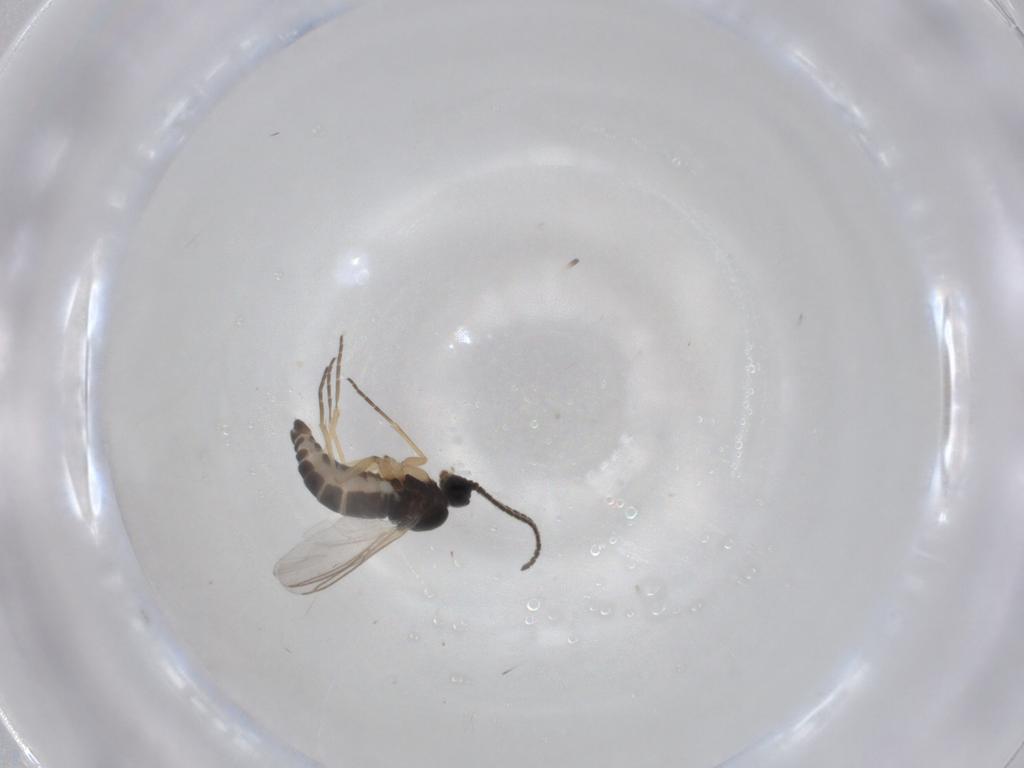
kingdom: Animalia
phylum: Arthropoda
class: Insecta
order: Diptera
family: Sciaridae
